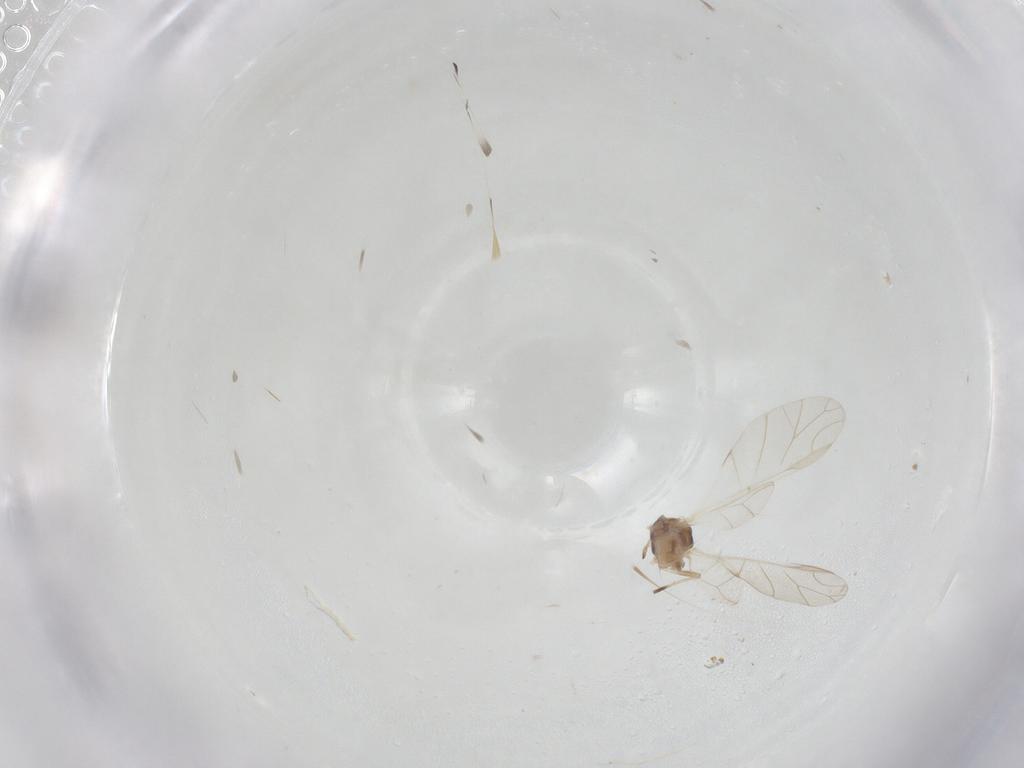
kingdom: Animalia
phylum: Arthropoda
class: Insecta
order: Hemiptera
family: Aphididae
